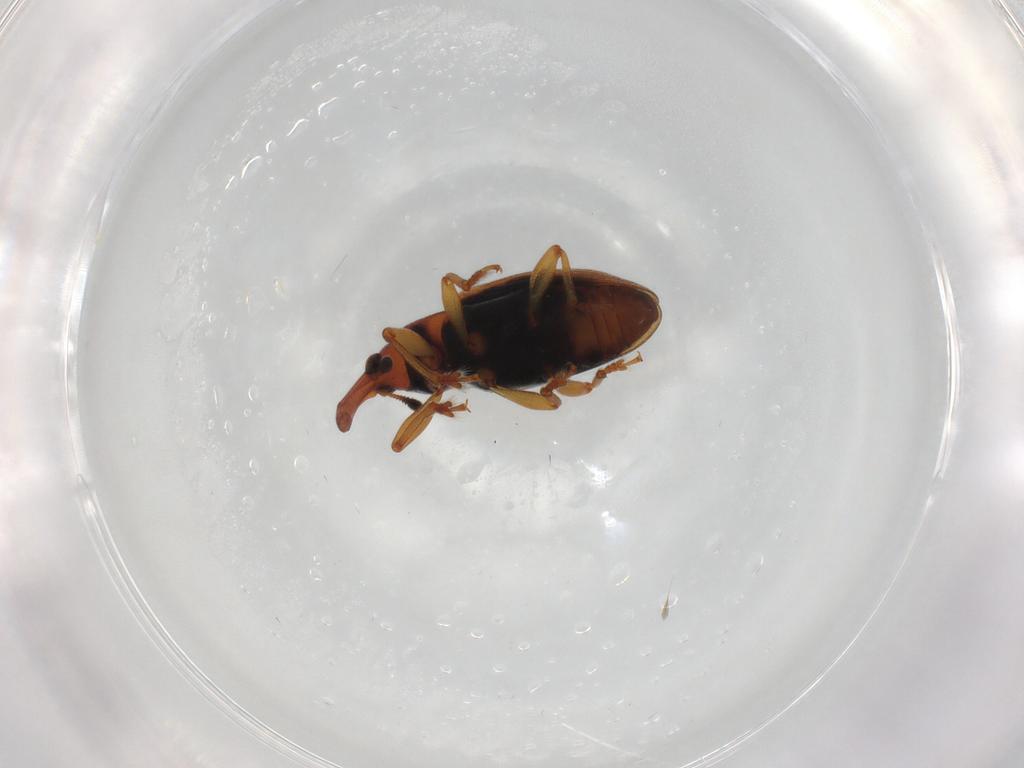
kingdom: Animalia
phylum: Arthropoda
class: Insecta
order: Coleoptera
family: Curculionidae
